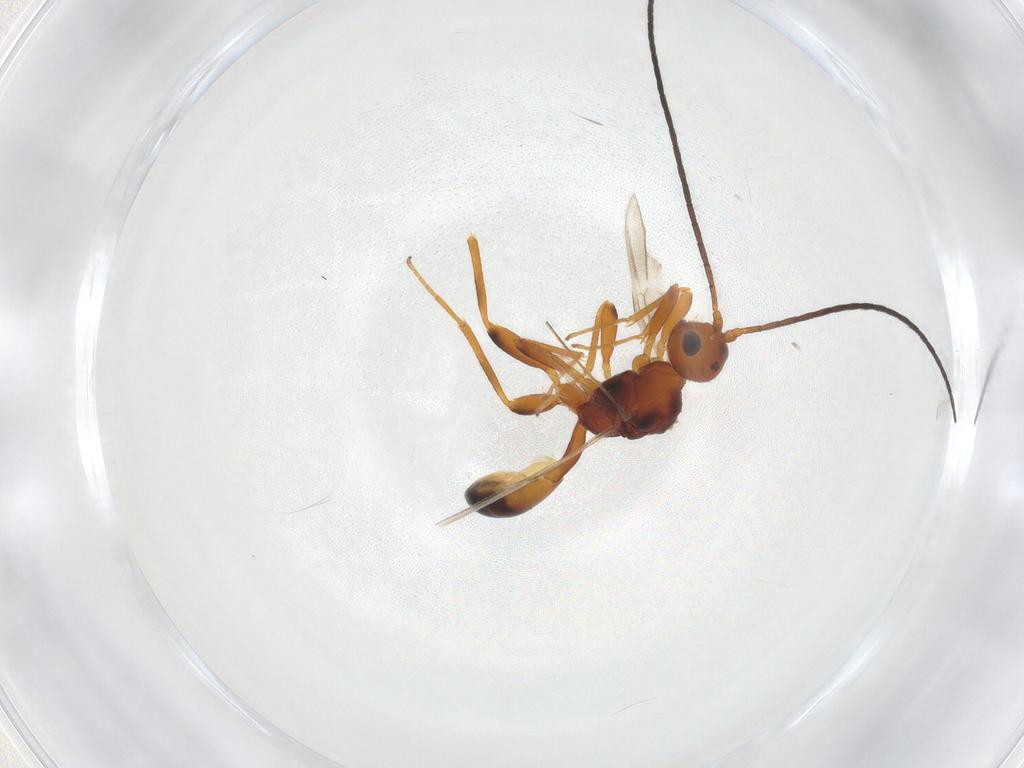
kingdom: Animalia
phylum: Arthropoda
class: Insecta
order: Hymenoptera
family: Braconidae
